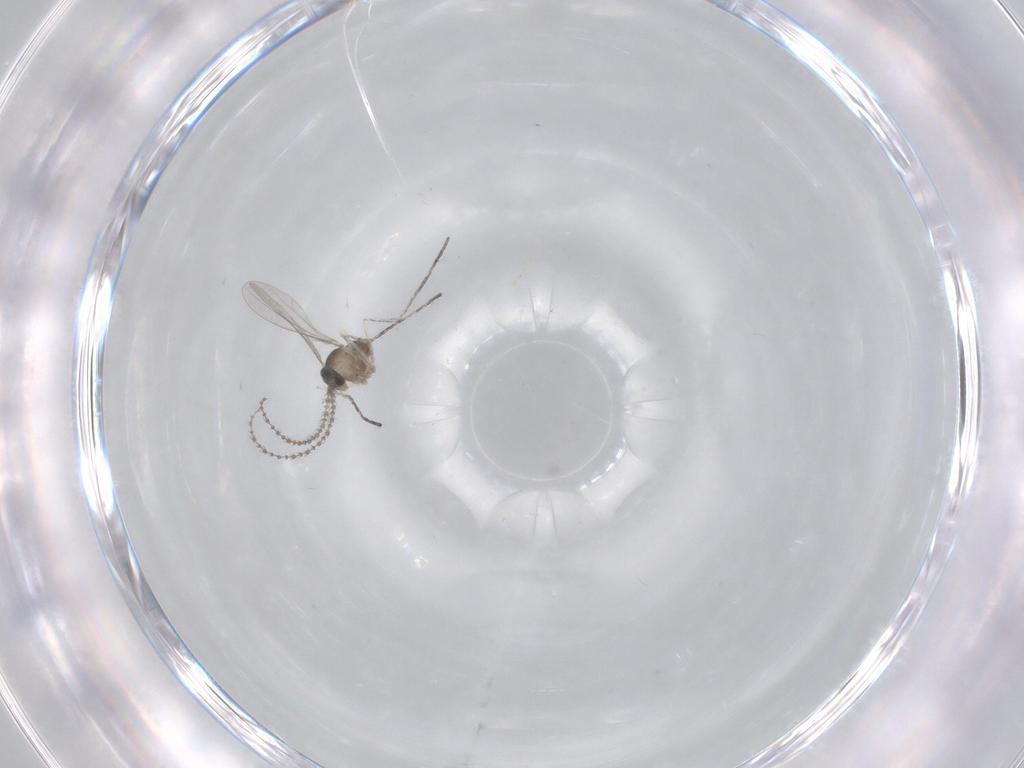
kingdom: Animalia
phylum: Arthropoda
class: Insecta
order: Diptera
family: Cecidomyiidae
